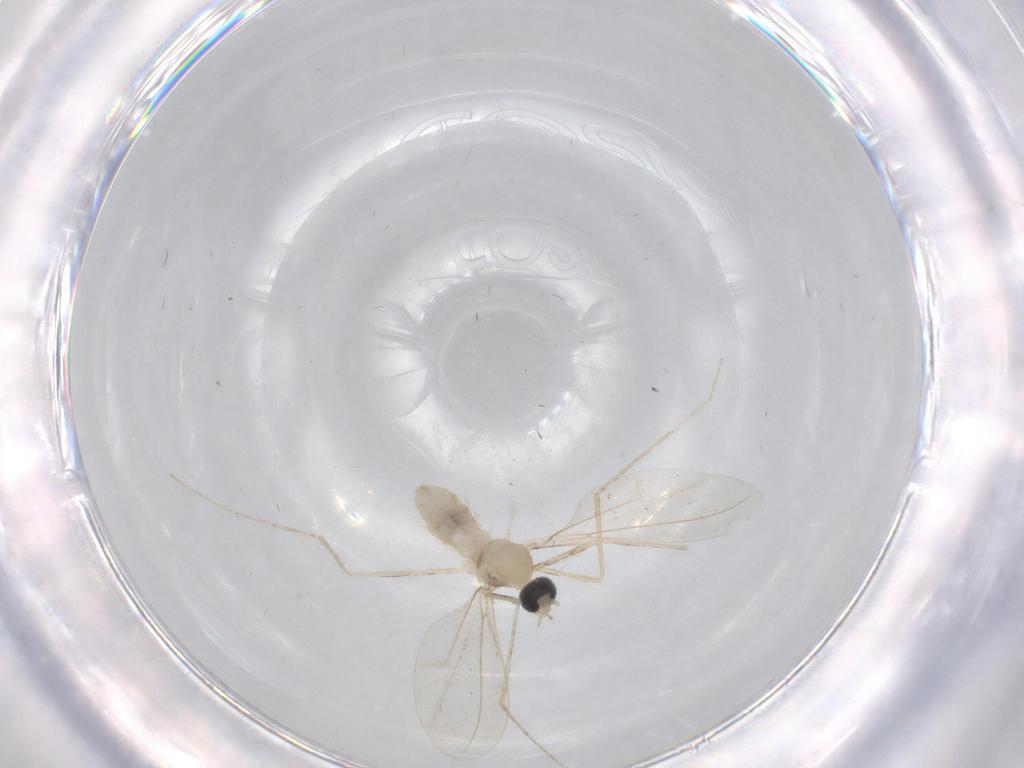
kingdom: Animalia
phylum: Arthropoda
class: Insecta
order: Diptera
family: Cecidomyiidae
